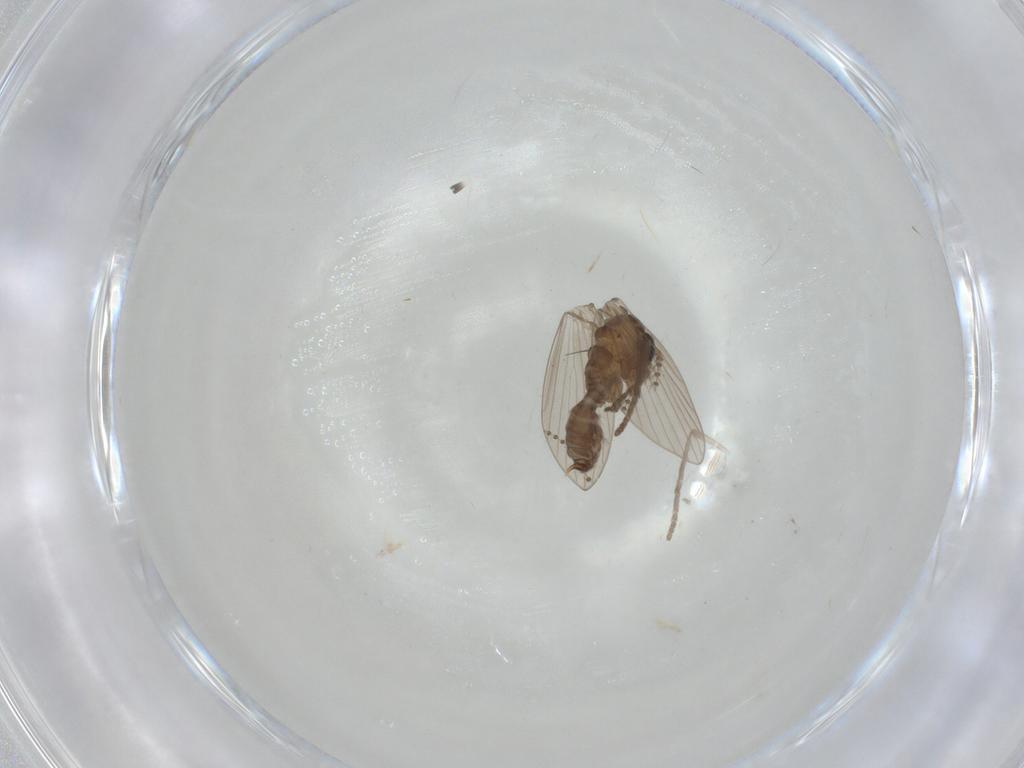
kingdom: Animalia
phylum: Arthropoda
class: Insecta
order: Diptera
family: Psychodidae
